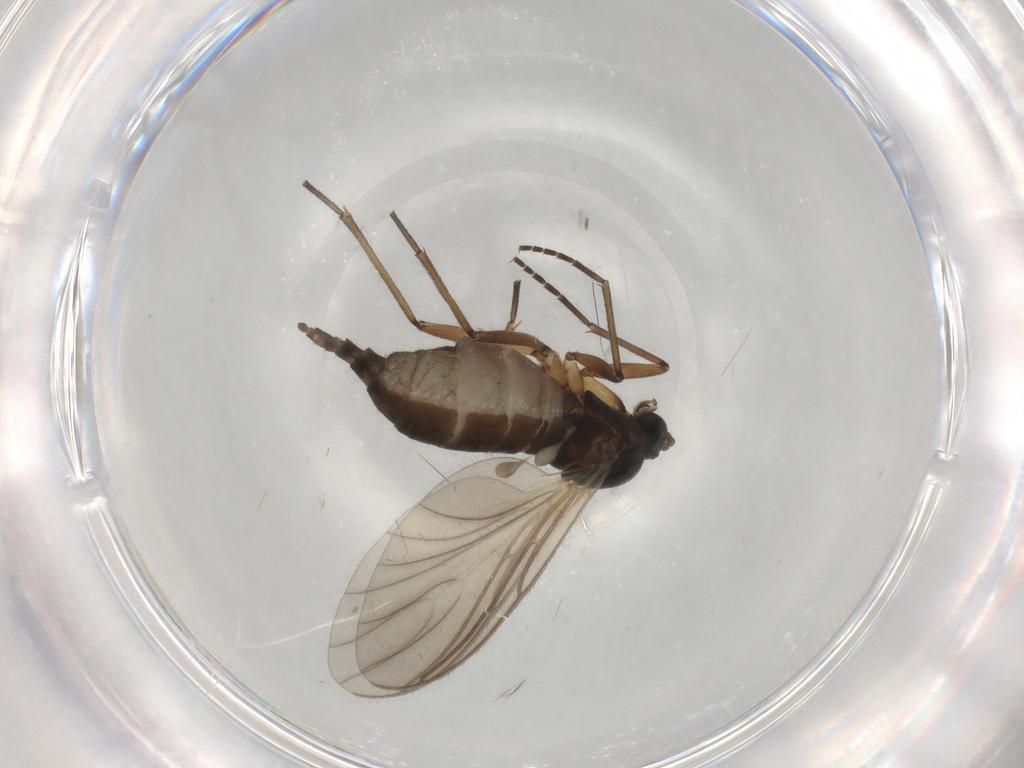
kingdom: Animalia
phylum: Arthropoda
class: Insecta
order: Diptera
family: Sciaridae
